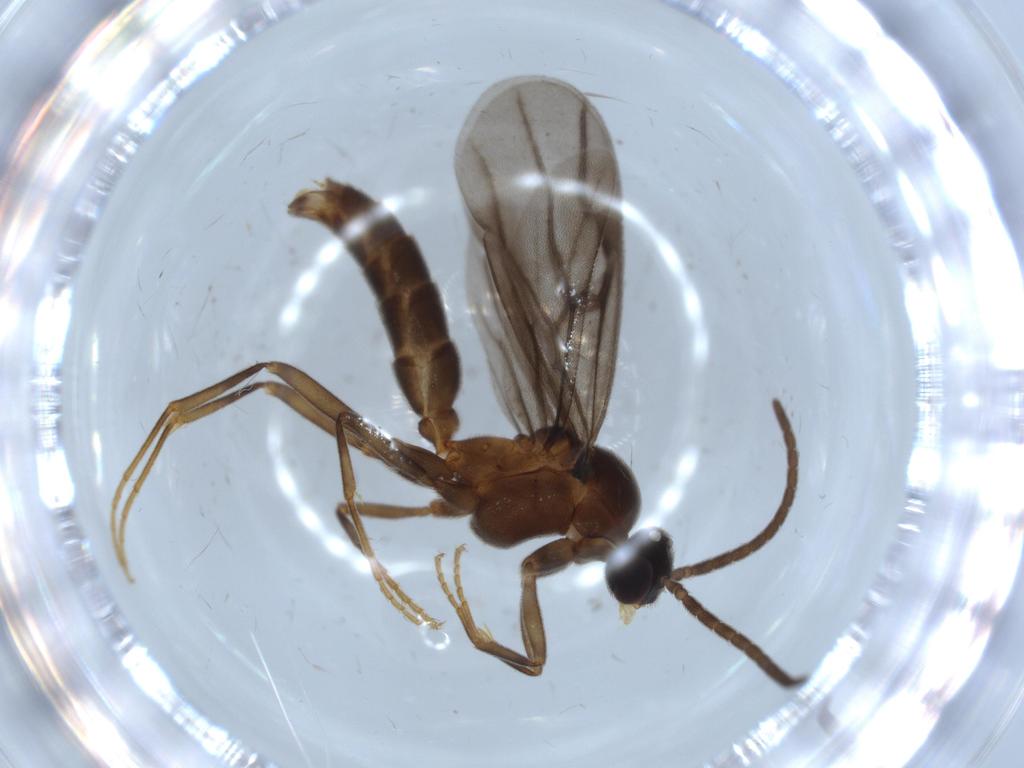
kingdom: Animalia
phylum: Arthropoda
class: Insecta
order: Hymenoptera
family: Formicidae
